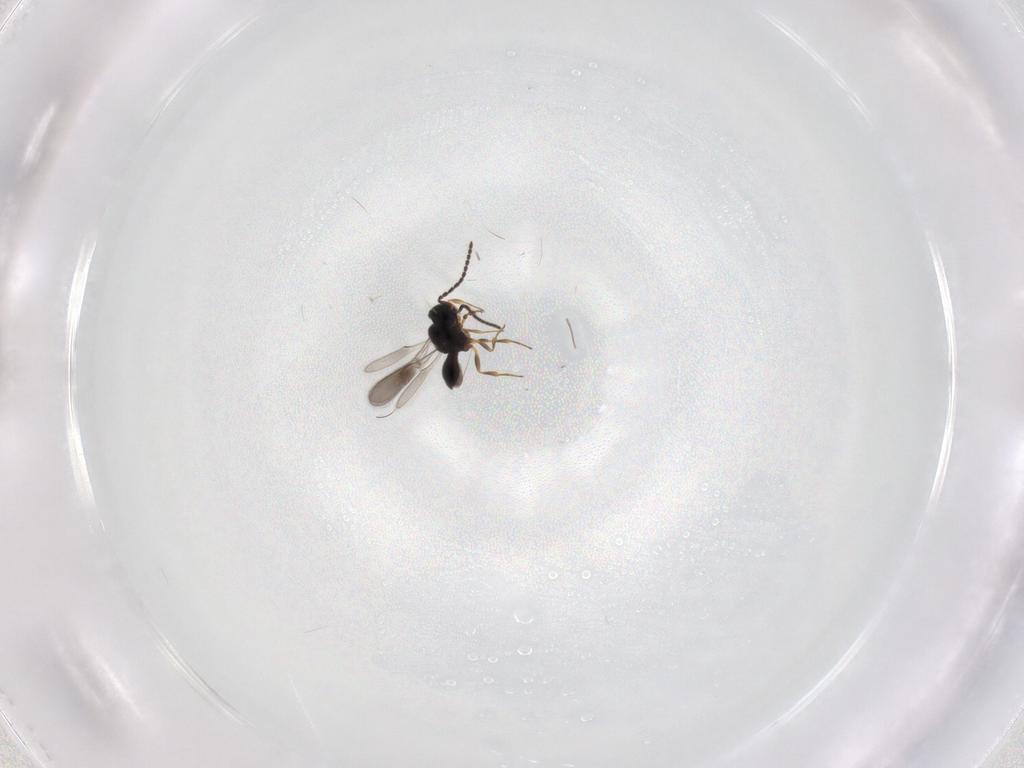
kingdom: Animalia
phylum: Arthropoda
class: Insecta
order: Hymenoptera
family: Scelionidae
